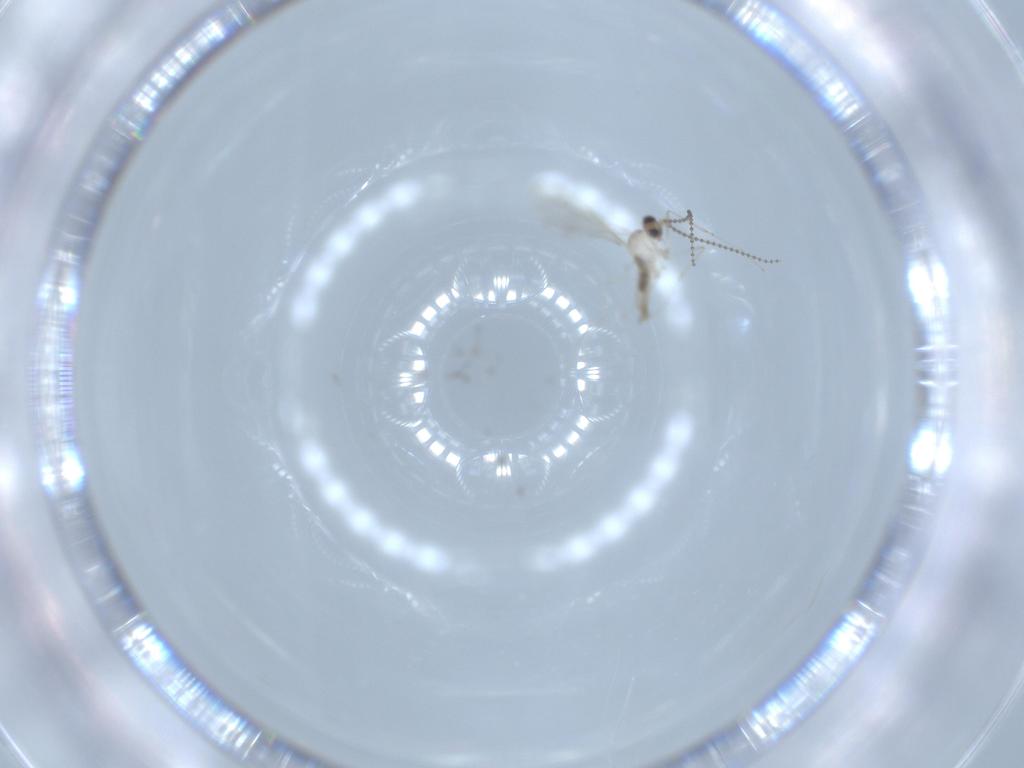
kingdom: Animalia
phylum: Arthropoda
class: Insecta
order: Diptera
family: Cecidomyiidae
